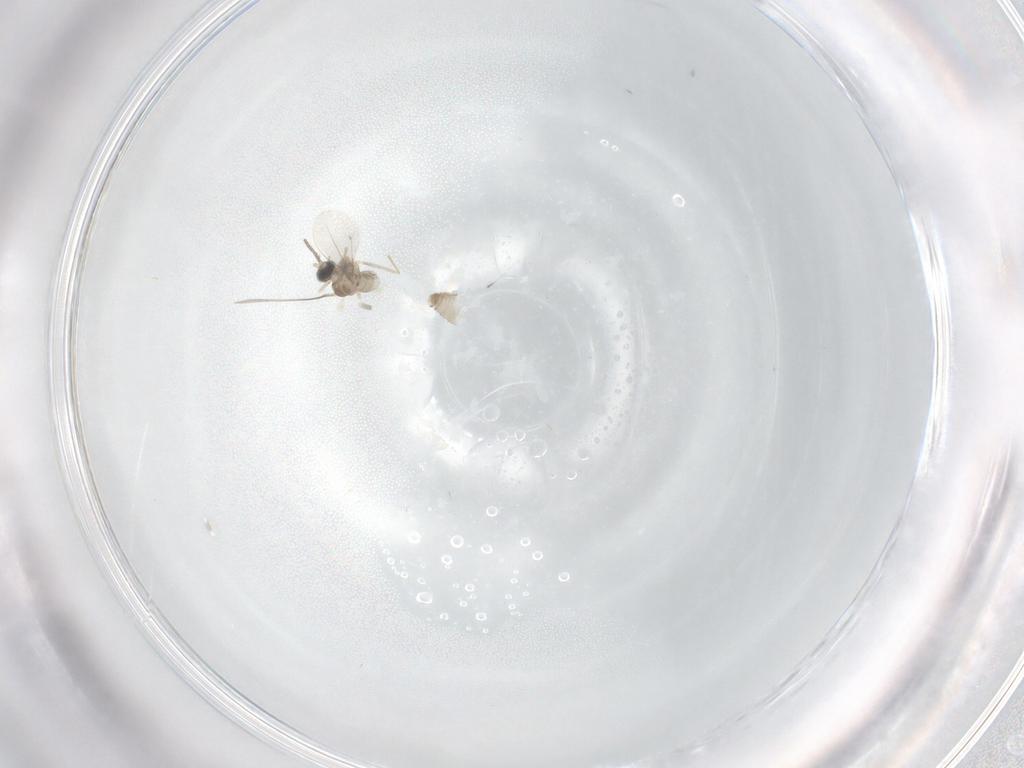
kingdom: Animalia
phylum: Arthropoda
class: Insecta
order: Diptera
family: Cecidomyiidae
